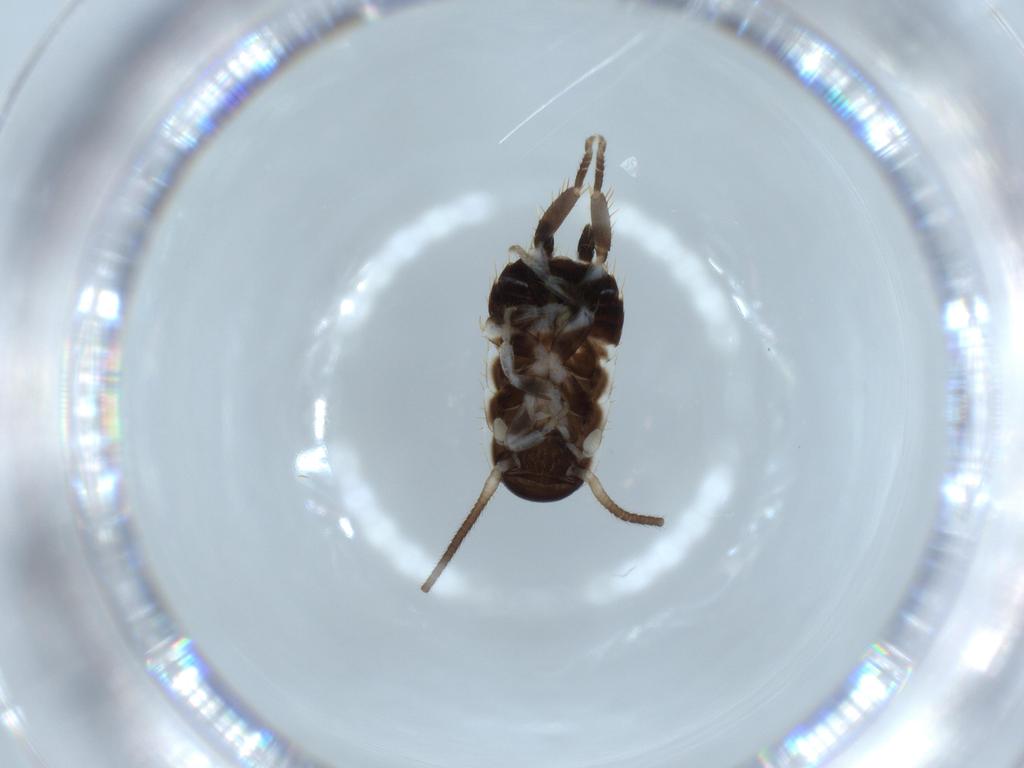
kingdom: Animalia
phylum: Arthropoda
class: Insecta
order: Blattodea
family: Ectobiidae
